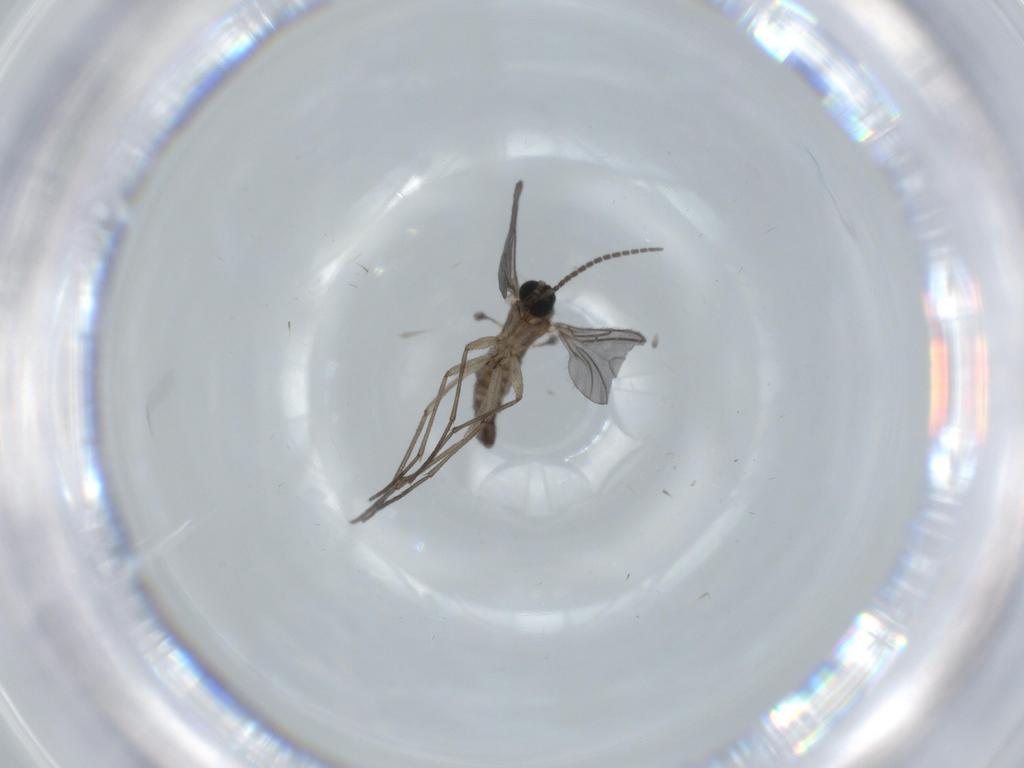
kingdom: Animalia
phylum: Arthropoda
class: Insecta
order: Diptera
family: Sciaridae
